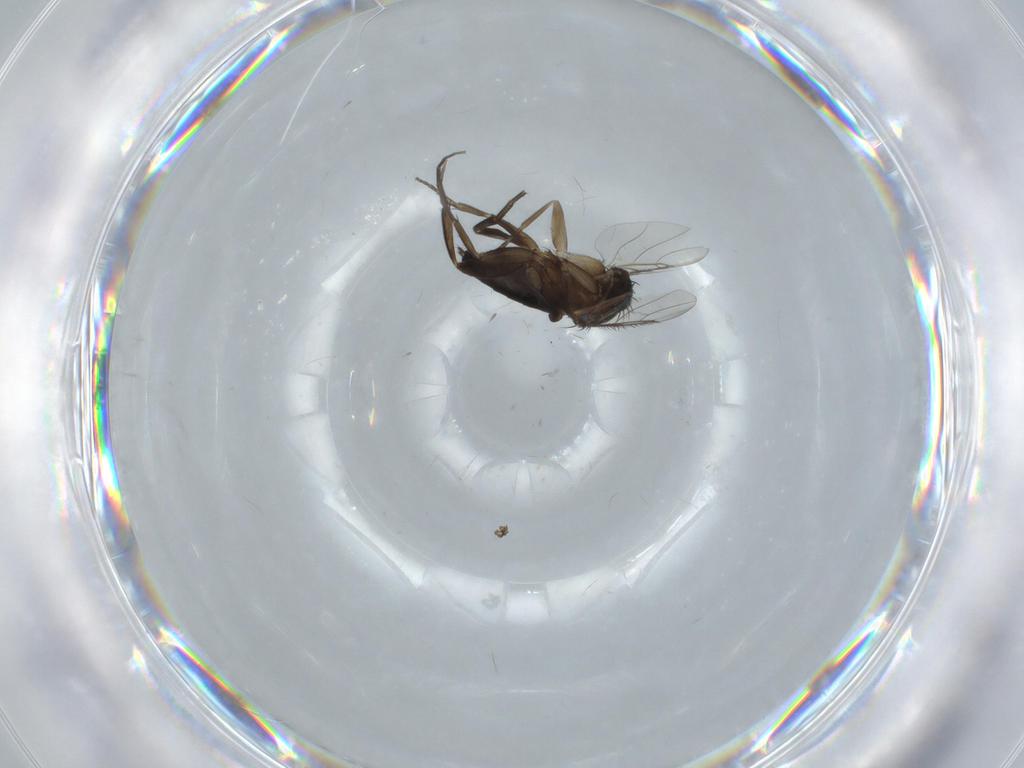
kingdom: Animalia
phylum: Arthropoda
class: Insecta
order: Diptera
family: Phoridae
